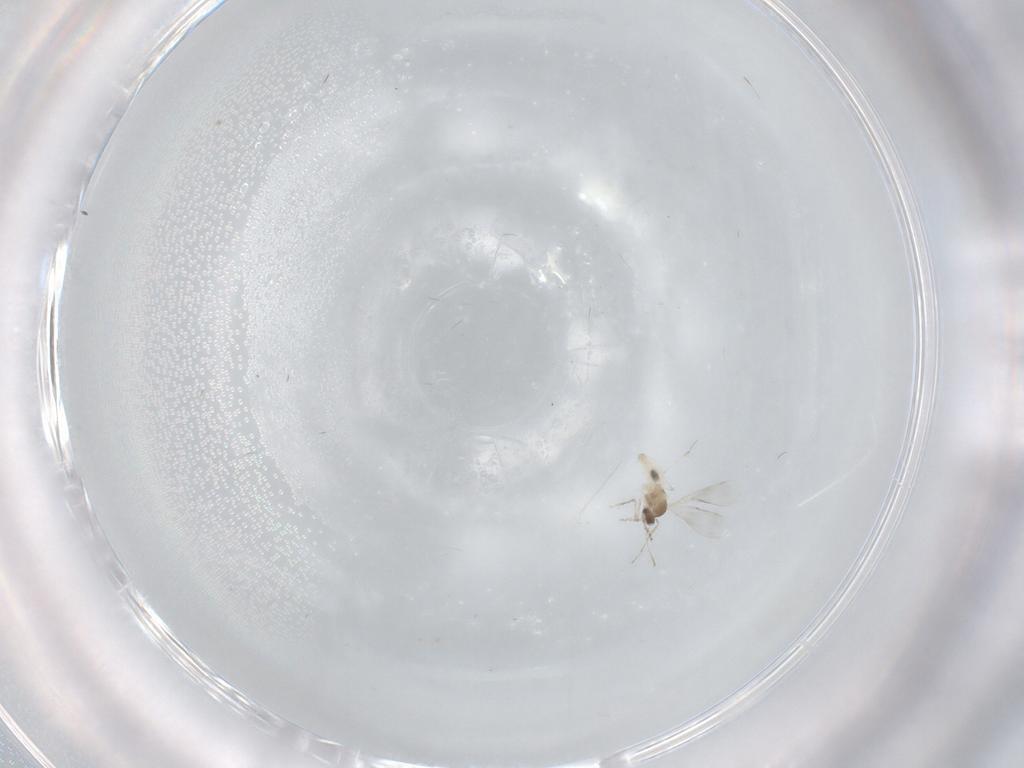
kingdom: Animalia
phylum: Arthropoda
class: Insecta
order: Diptera
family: Cecidomyiidae
